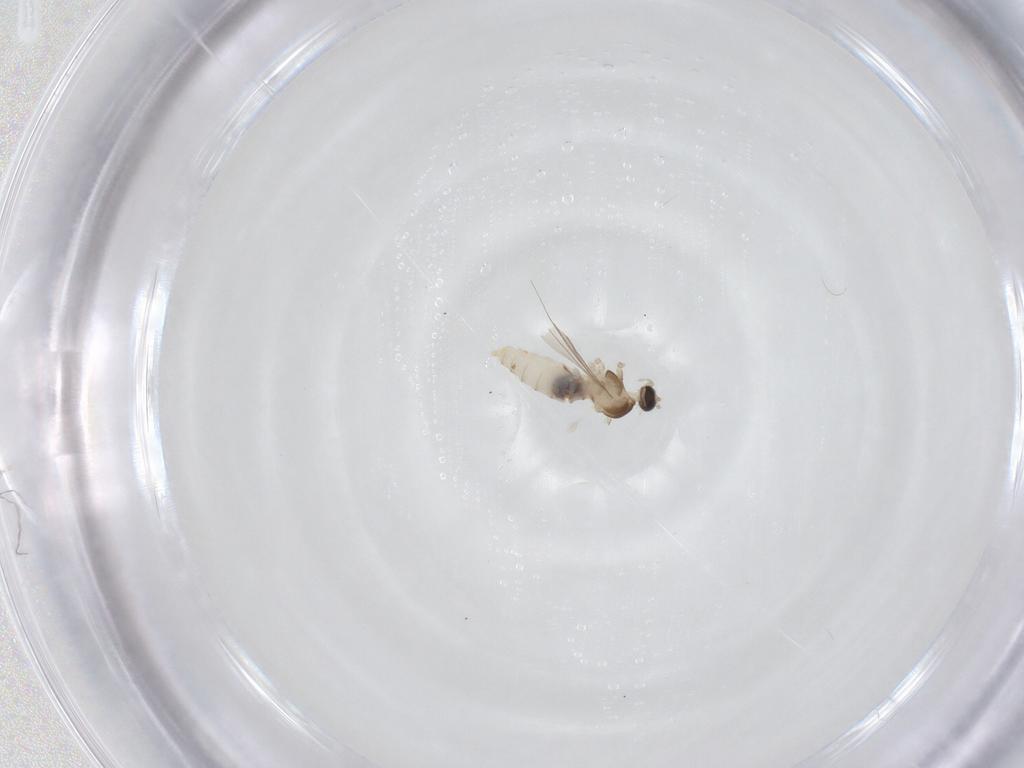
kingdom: Animalia
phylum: Arthropoda
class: Insecta
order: Diptera
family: Cecidomyiidae
